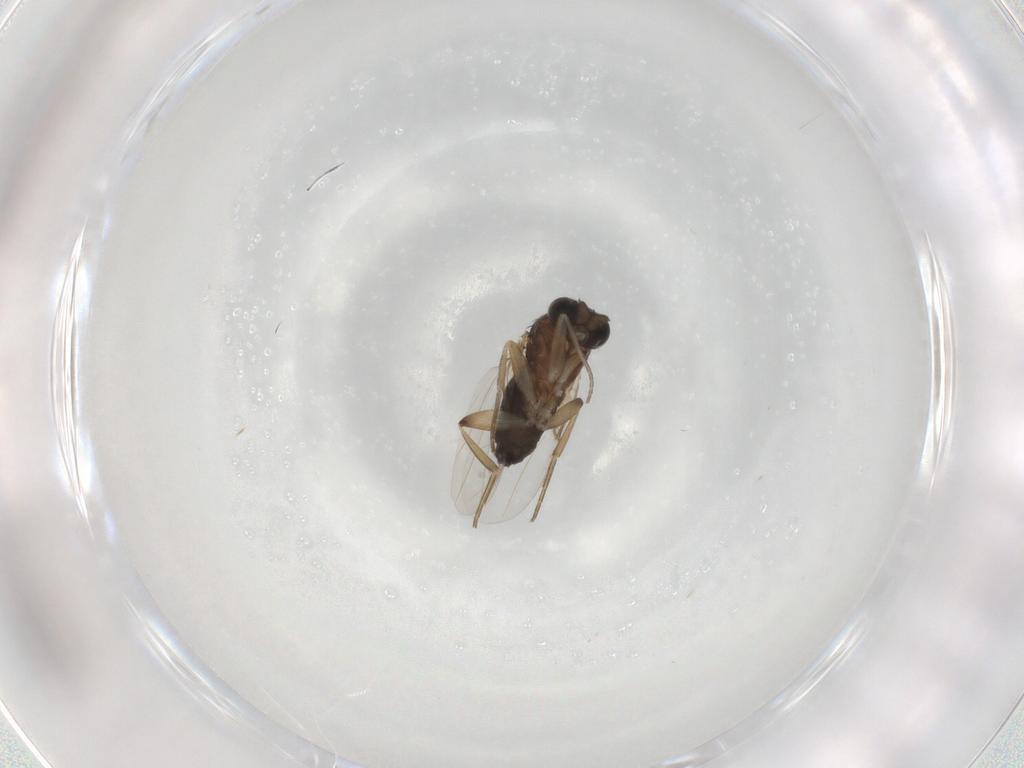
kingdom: Animalia
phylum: Arthropoda
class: Insecta
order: Diptera
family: Phoridae
